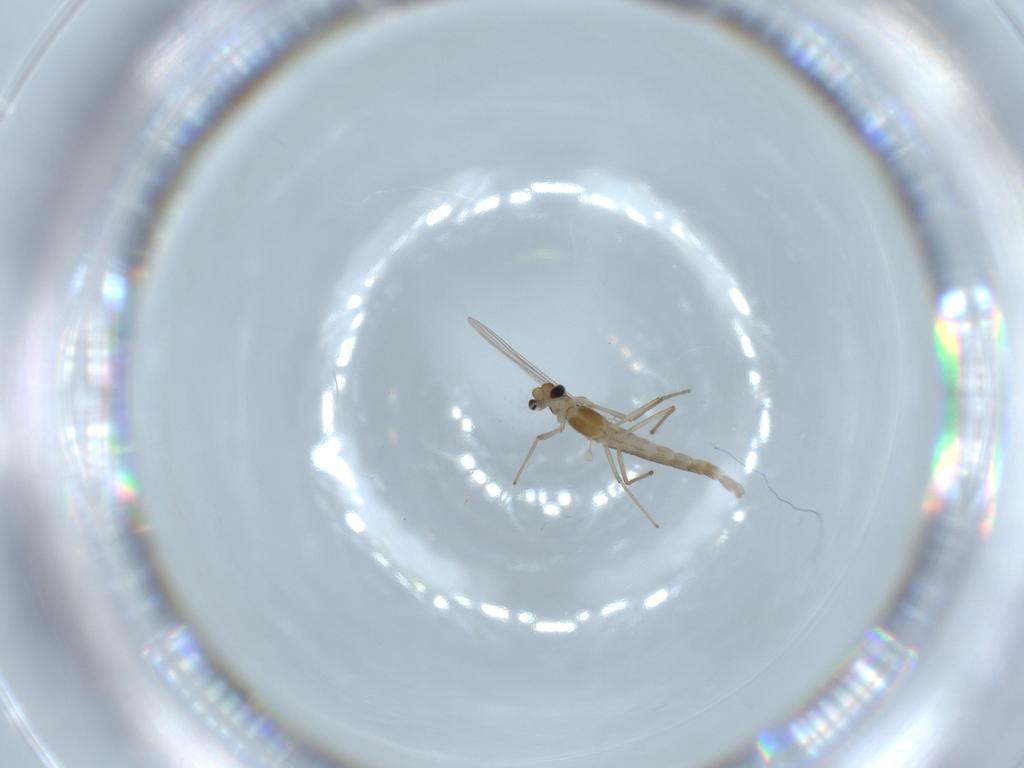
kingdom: Animalia
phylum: Arthropoda
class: Insecta
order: Diptera
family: Chironomidae
